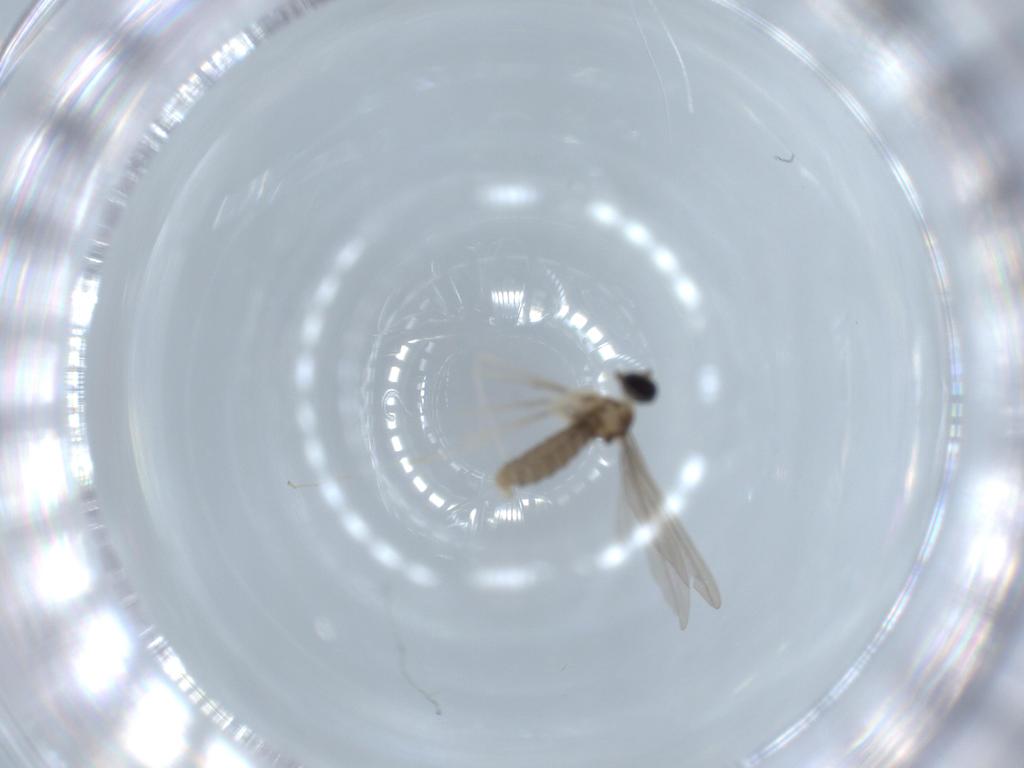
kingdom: Animalia
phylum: Arthropoda
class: Insecta
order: Diptera
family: Cecidomyiidae
